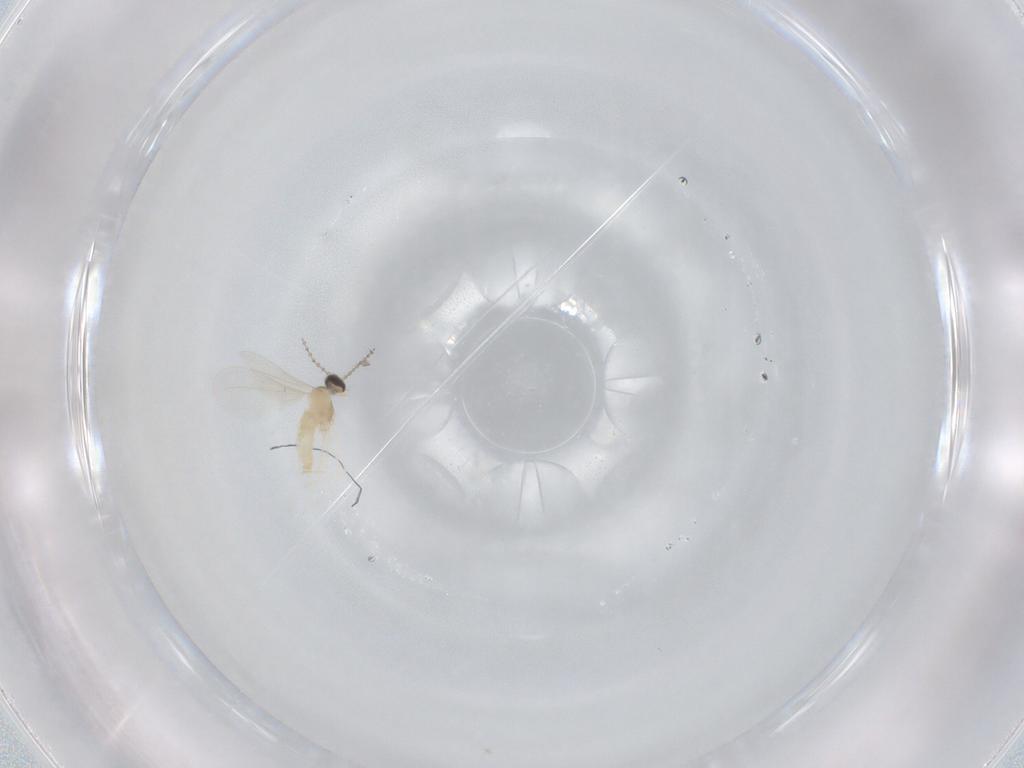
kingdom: Animalia
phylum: Arthropoda
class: Insecta
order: Diptera
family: Cecidomyiidae
